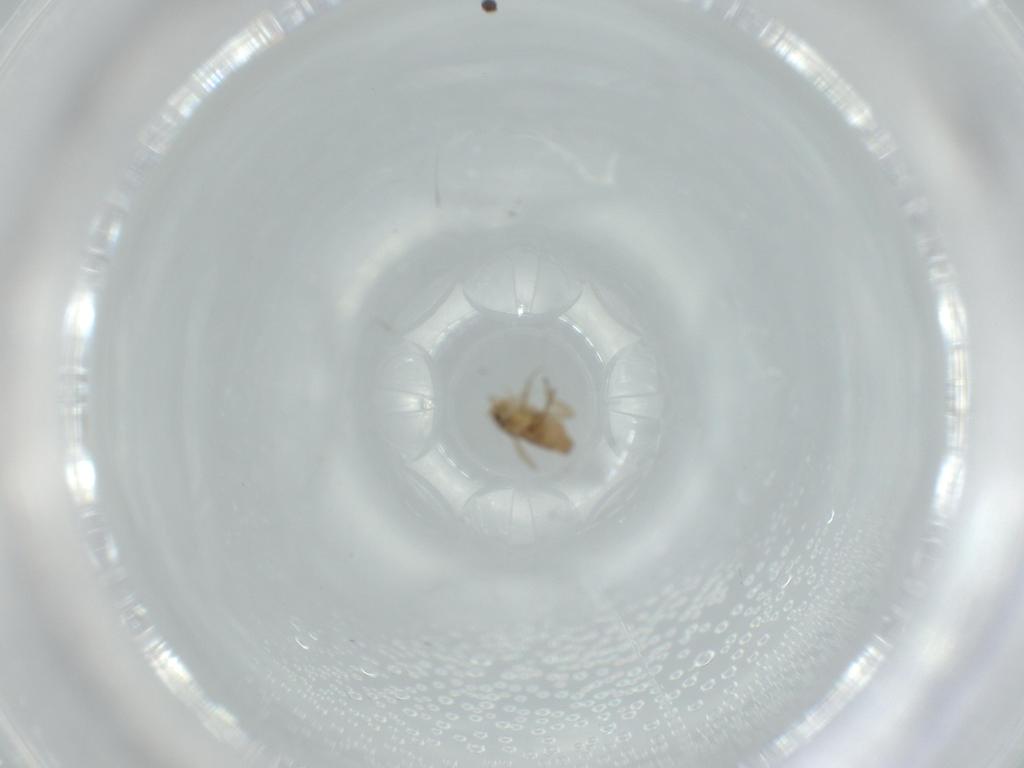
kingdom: Animalia
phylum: Arthropoda
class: Insecta
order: Diptera
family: Phoridae
